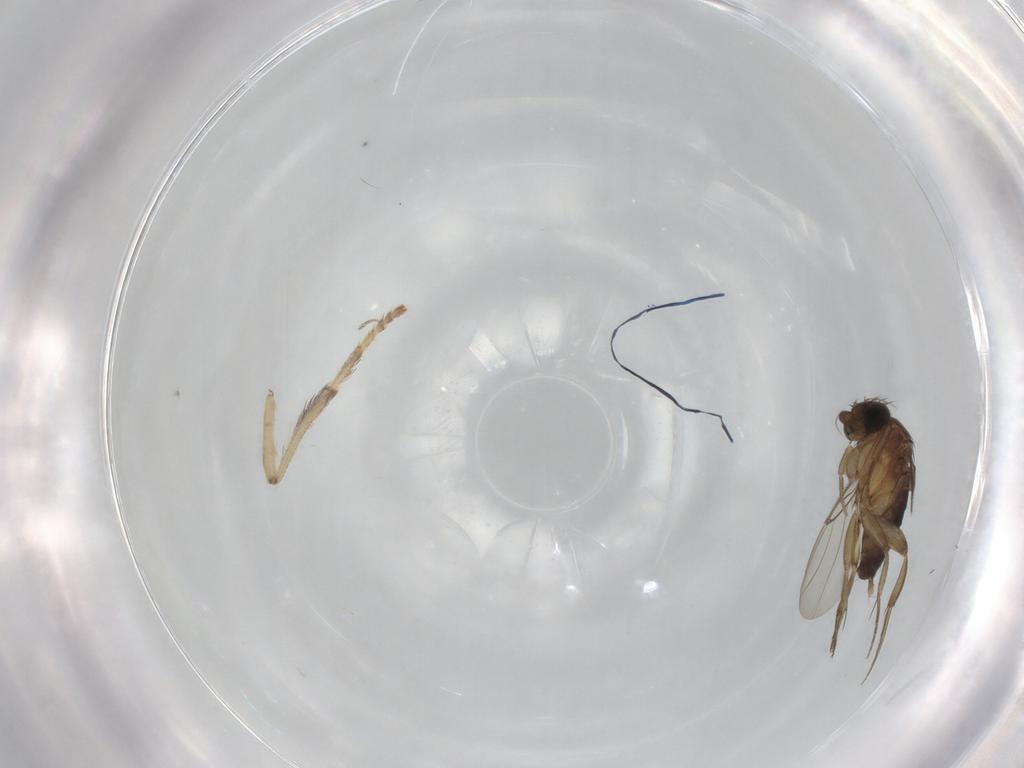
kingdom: Animalia
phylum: Arthropoda
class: Insecta
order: Diptera
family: Phoridae
